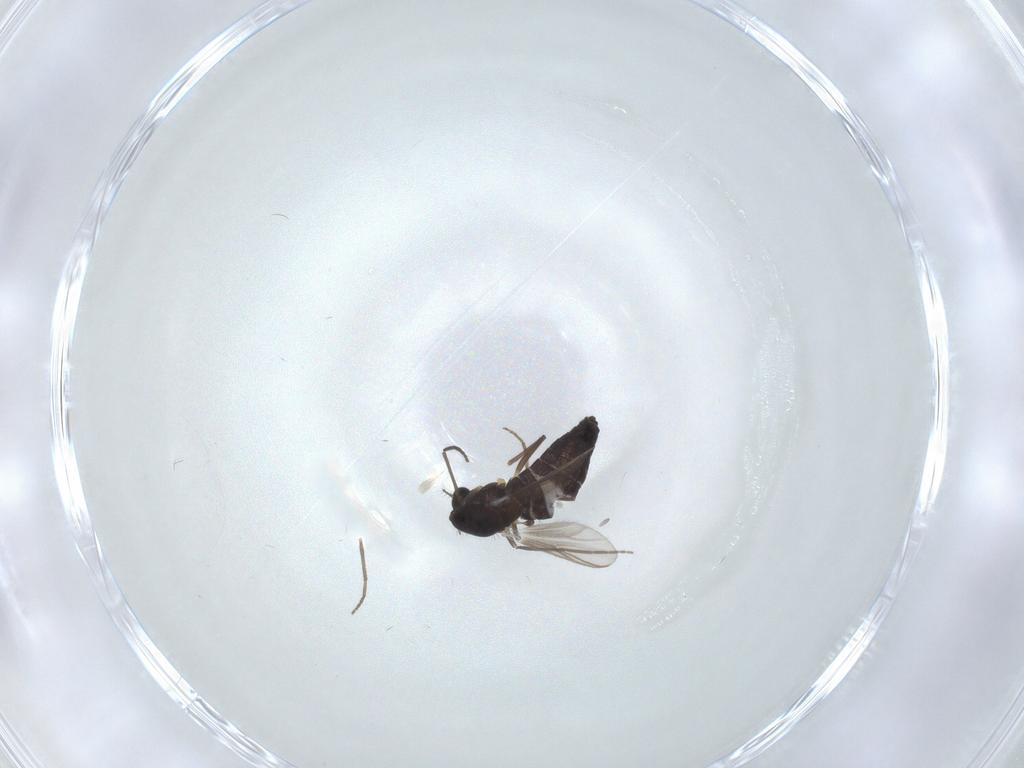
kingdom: Animalia
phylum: Arthropoda
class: Insecta
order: Diptera
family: Chironomidae
